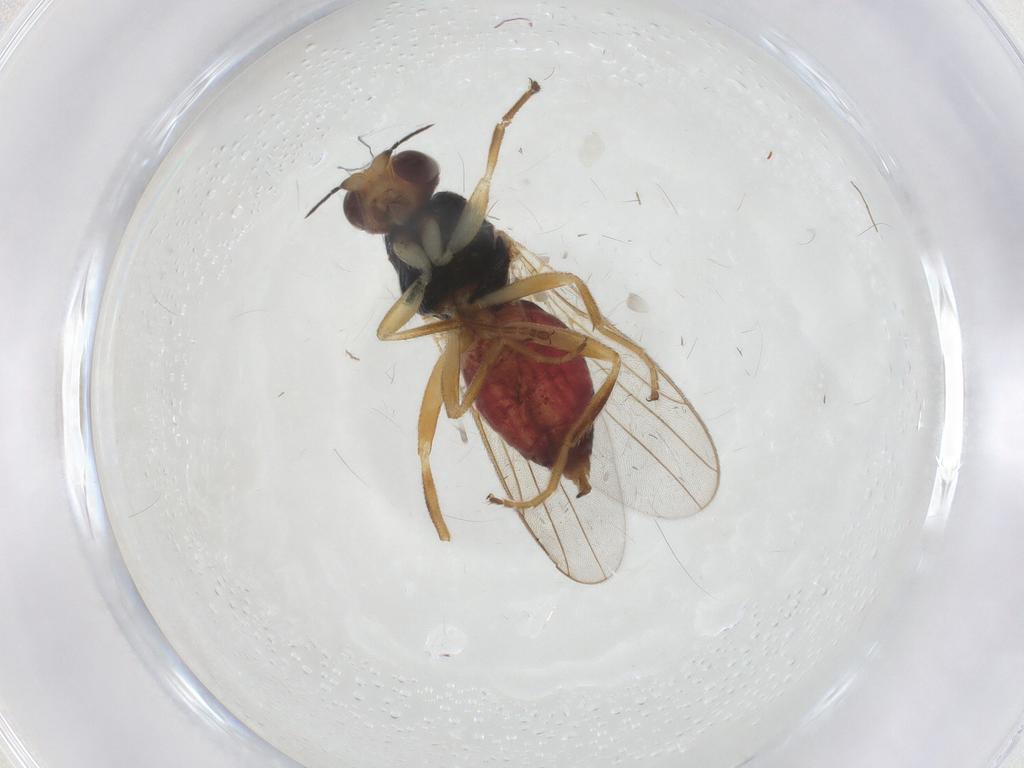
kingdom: Animalia
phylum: Arthropoda
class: Insecta
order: Diptera
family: Chloropidae
